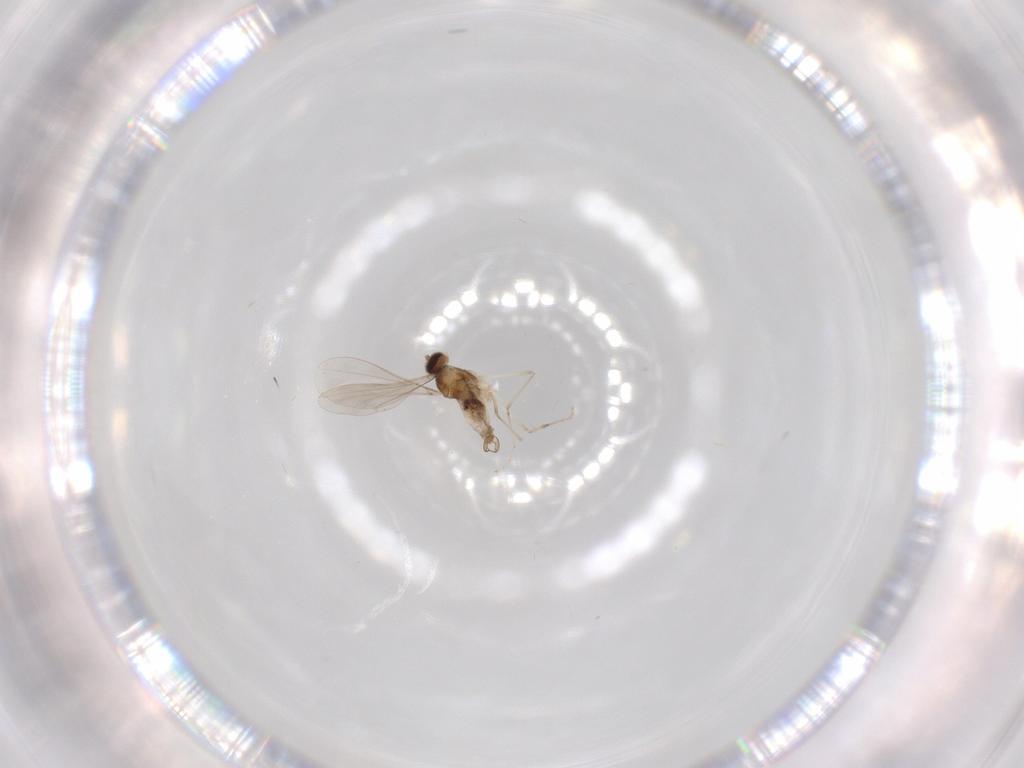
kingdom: Animalia
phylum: Arthropoda
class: Insecta
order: Diptera
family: Cecidomyiidae
